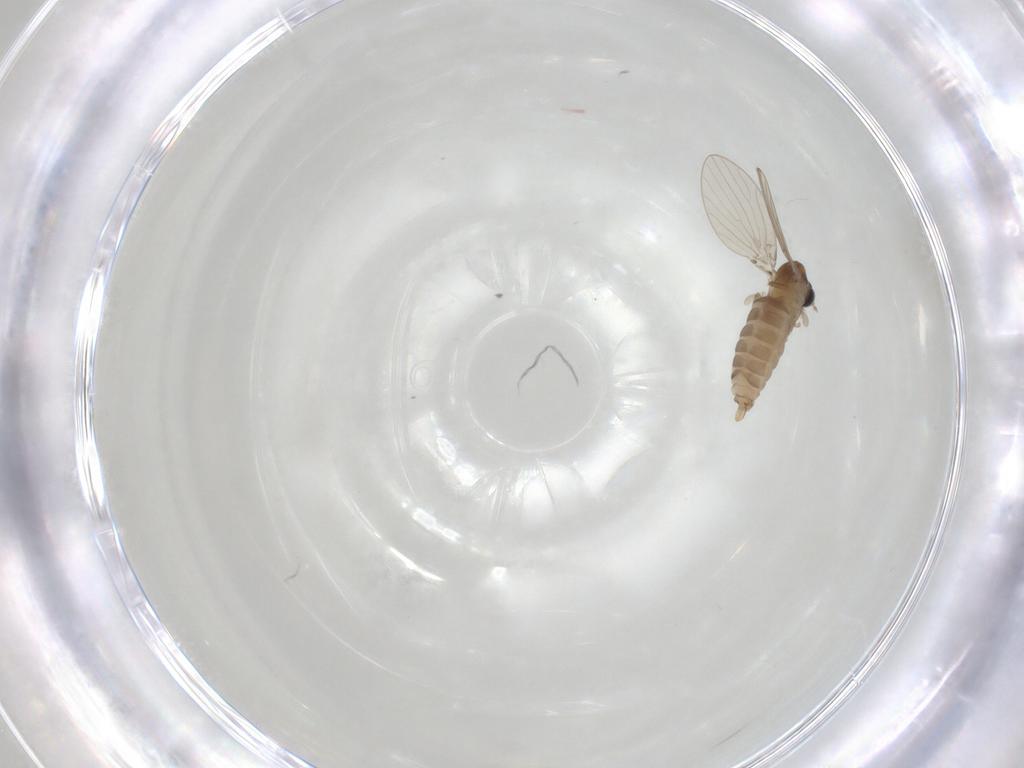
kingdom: Animalia
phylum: Arthropoda
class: Insecta
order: Diptera
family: Psychodidae
